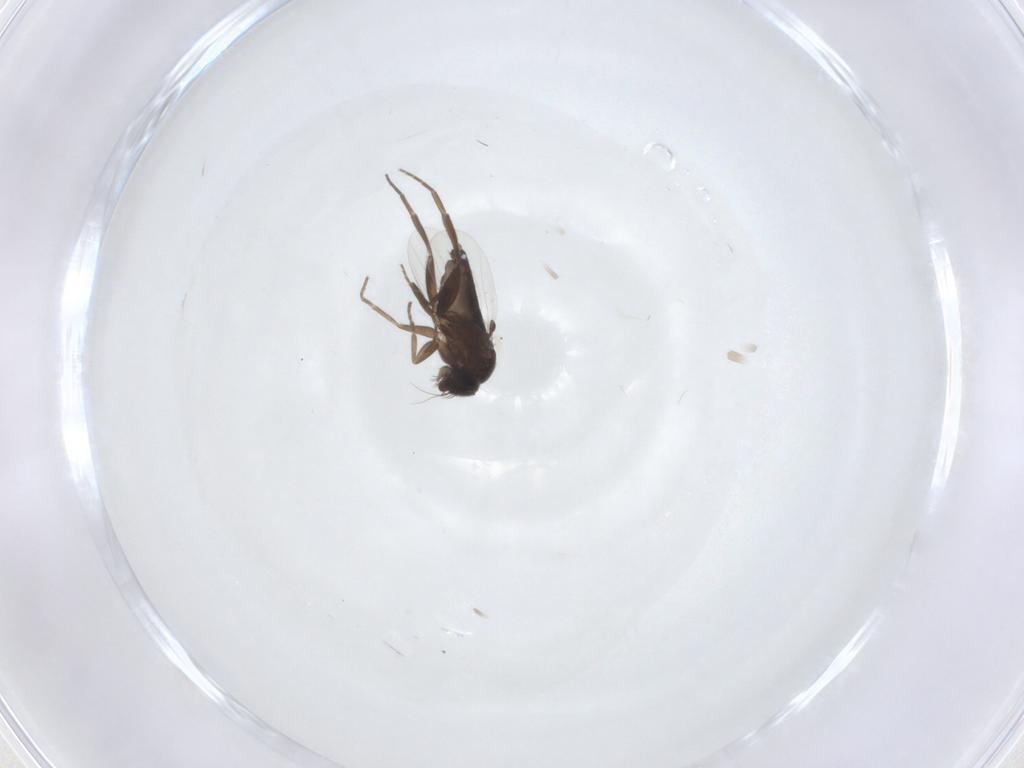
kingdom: Animalia
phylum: Arthropoda
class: Insecta
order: Diptera
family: Phoridae
